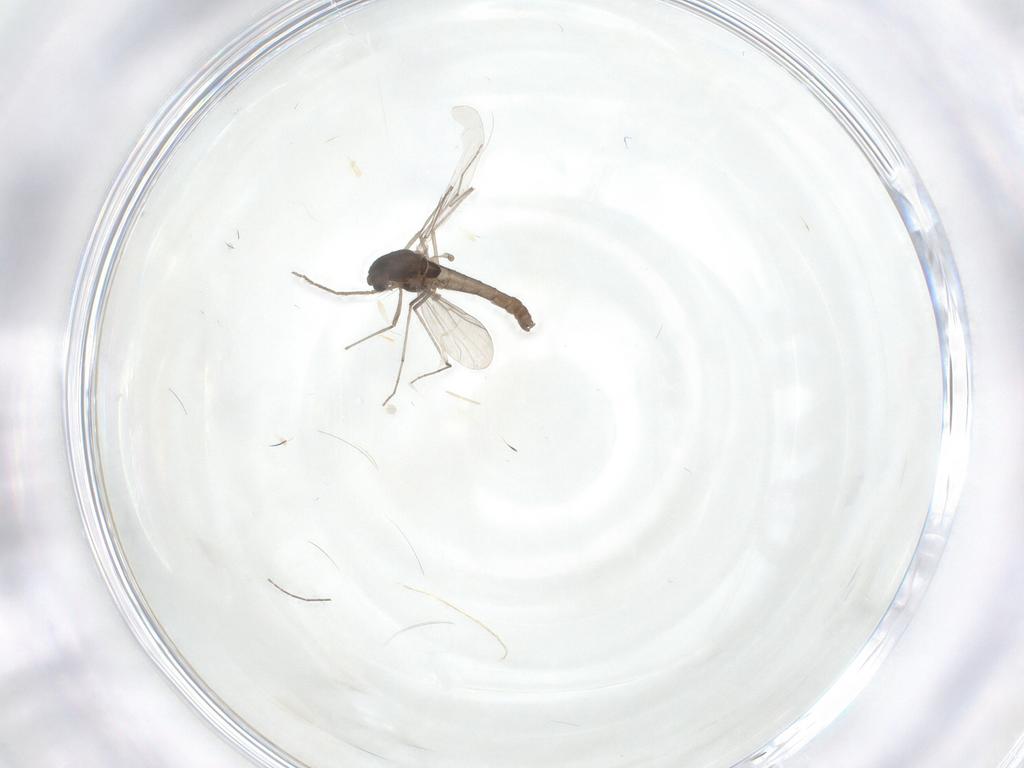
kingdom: Animalia
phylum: Arthropoda
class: Insecta
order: Diptera
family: Chironomidae
